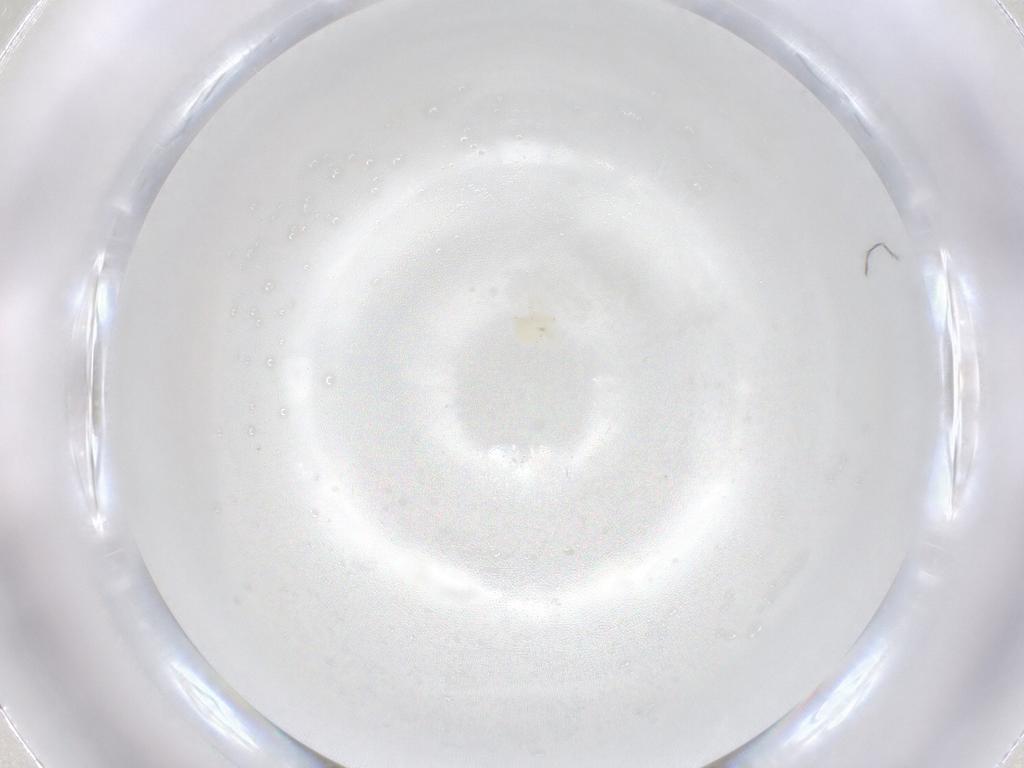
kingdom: Animalia
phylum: Arthropoda
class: Arachnida
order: Trombidiformes
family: Anystidae
